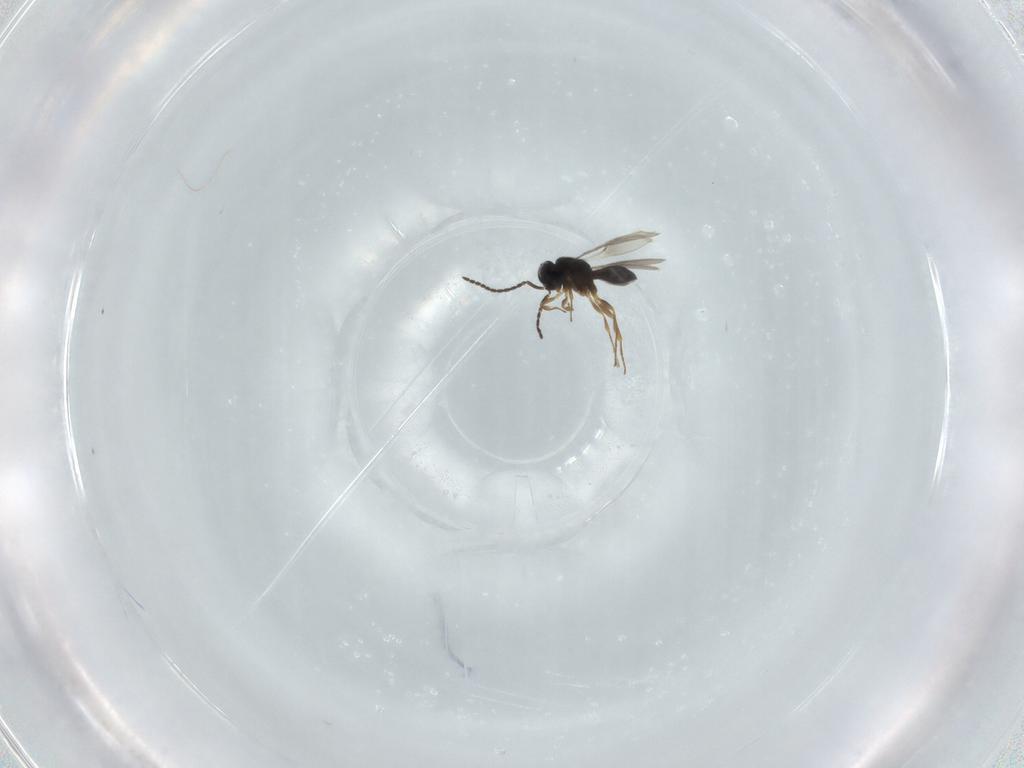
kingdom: Animalia
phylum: Arthropoda
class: Insecta
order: Hymenoptera
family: Scelionidae
